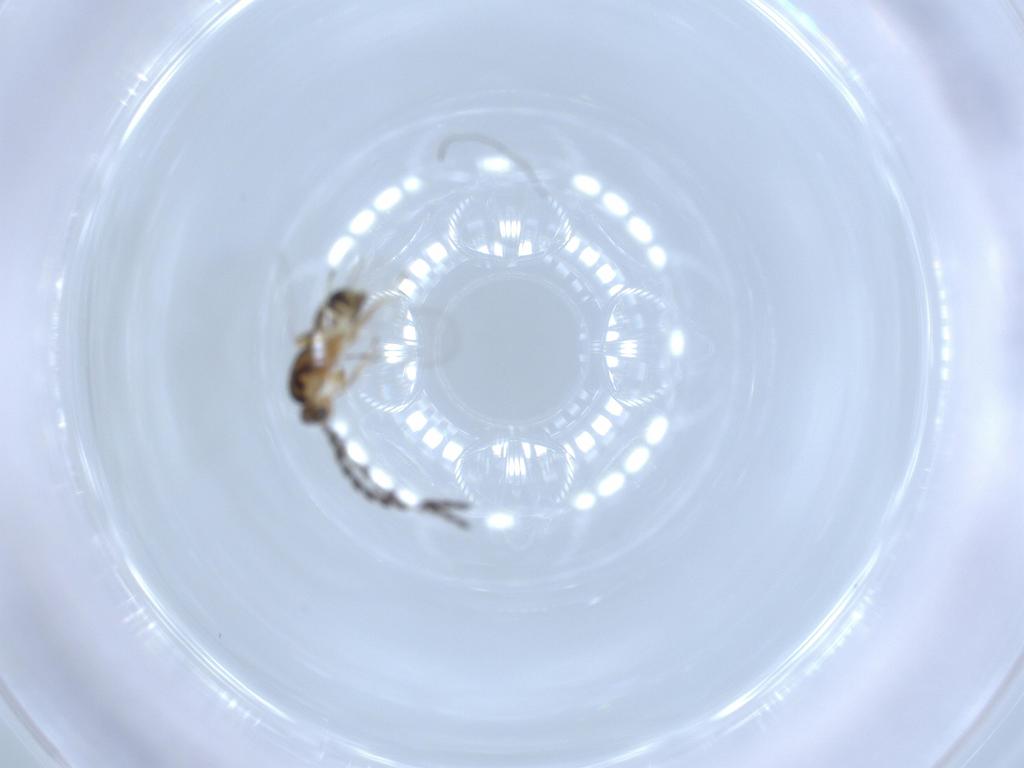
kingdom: Animalia
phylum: Arthropoda
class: Insecta
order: Hymenoptera
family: Mymaridae
